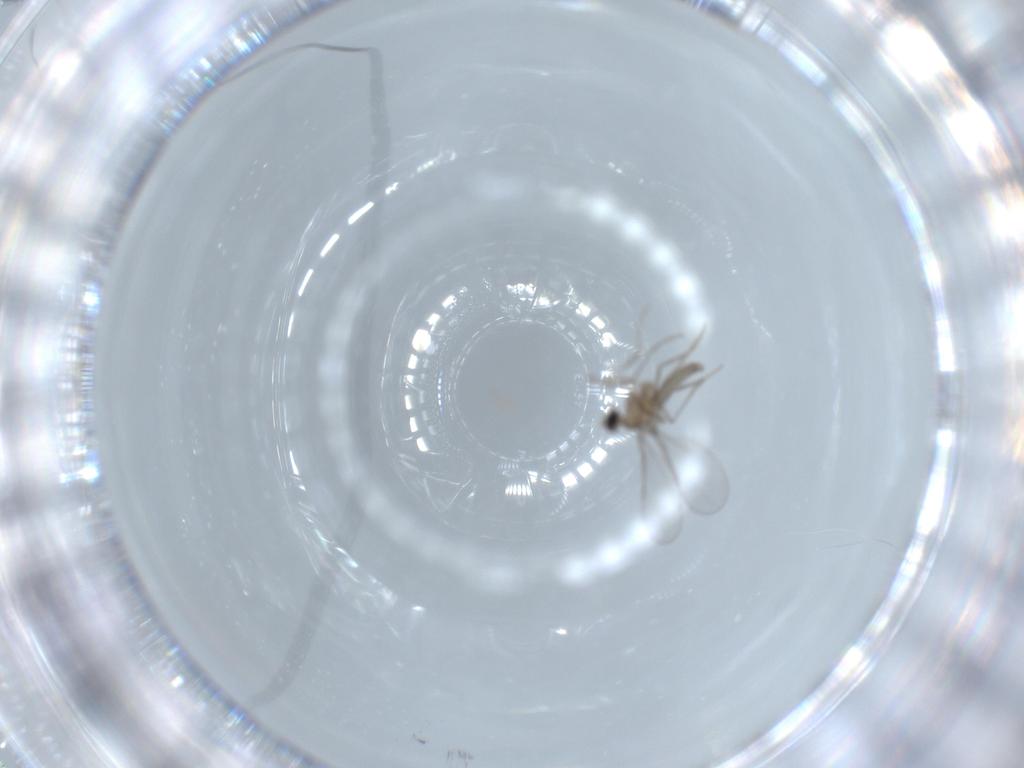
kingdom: Animalia
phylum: Arthropoda
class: Insecta
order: Diptera
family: Cecidomyiidae
